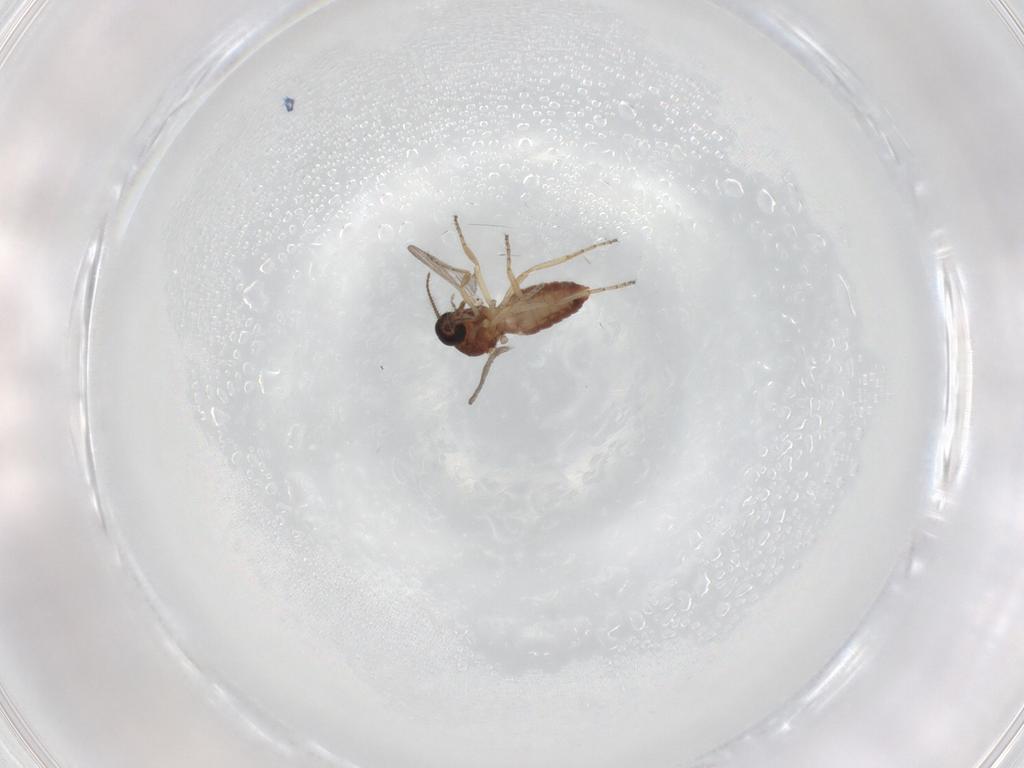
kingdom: Animalia
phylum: Arthropoda
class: Insecta
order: Diptera
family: Ceratopogonidae
